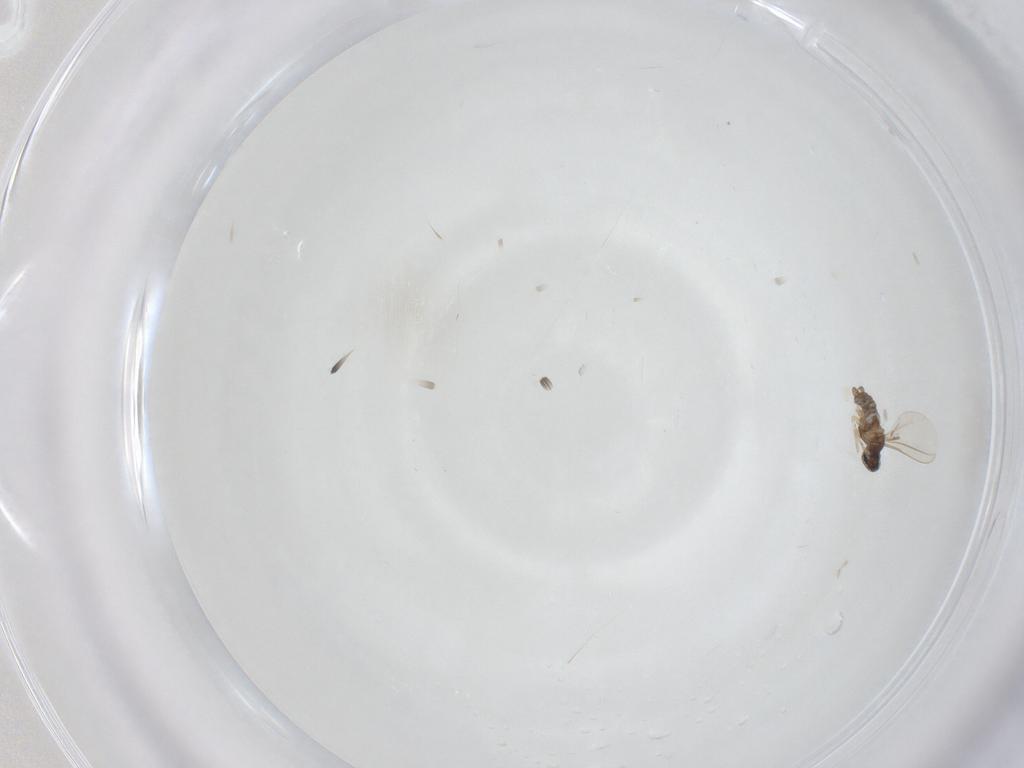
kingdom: Animalia
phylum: Arthropoda
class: Insecta
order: Diptera
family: Cecidomyiidae
